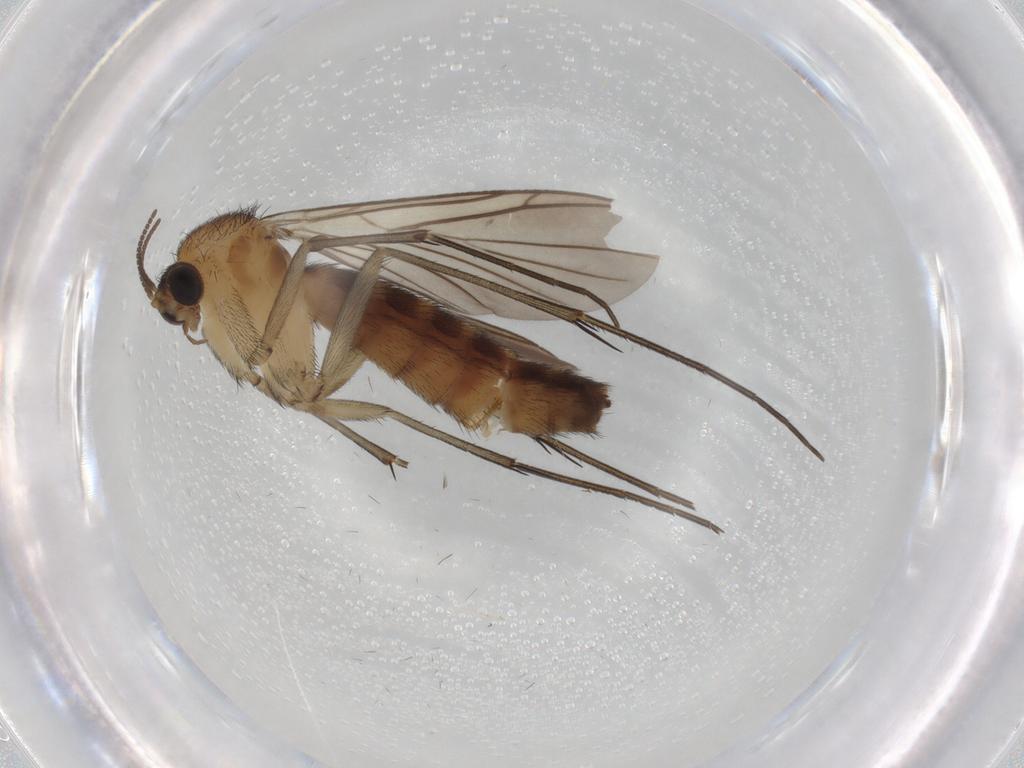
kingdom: Animalia
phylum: Arthropoda
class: Insecta
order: Diptera
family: Keroplatidae
